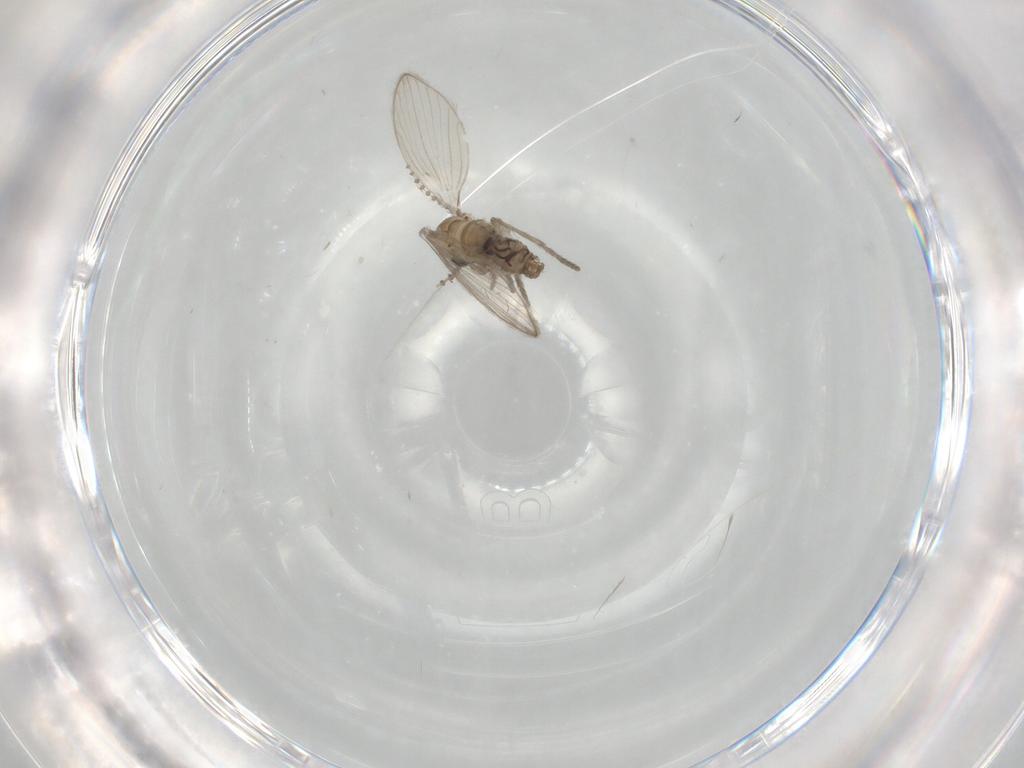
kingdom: Animalia
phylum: Arthropoda
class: Insecta
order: Diptera
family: Psychodidae
